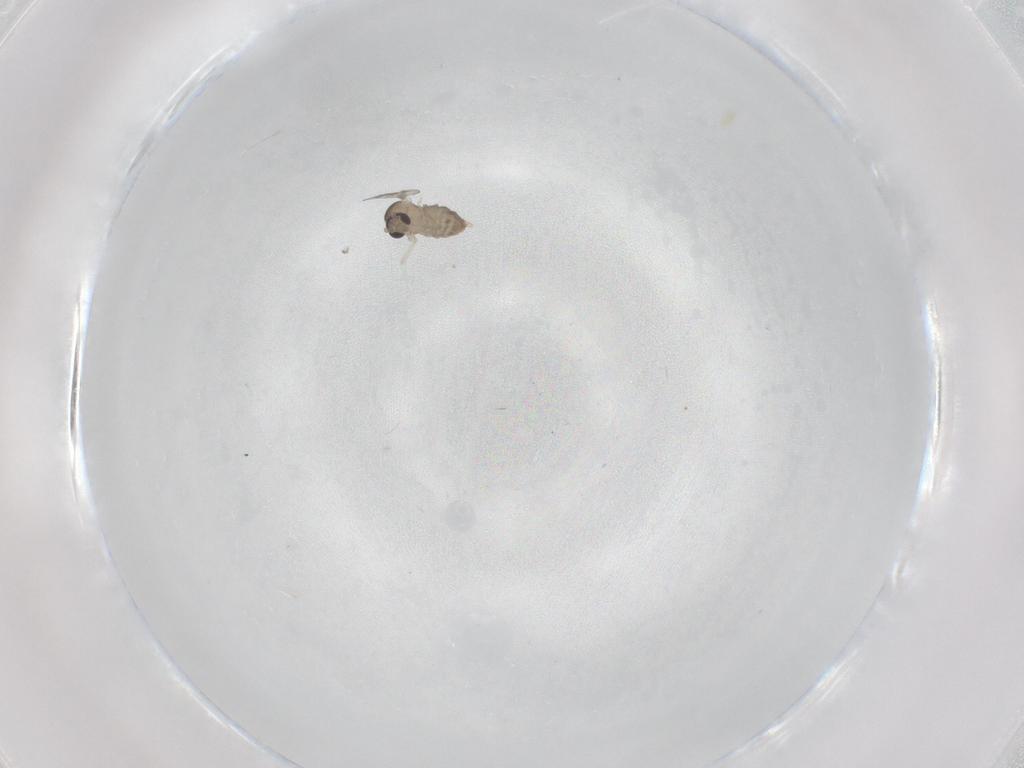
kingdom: Animalia
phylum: Arthropoda
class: Insecta
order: Diptera
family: Cecidomyiidae
